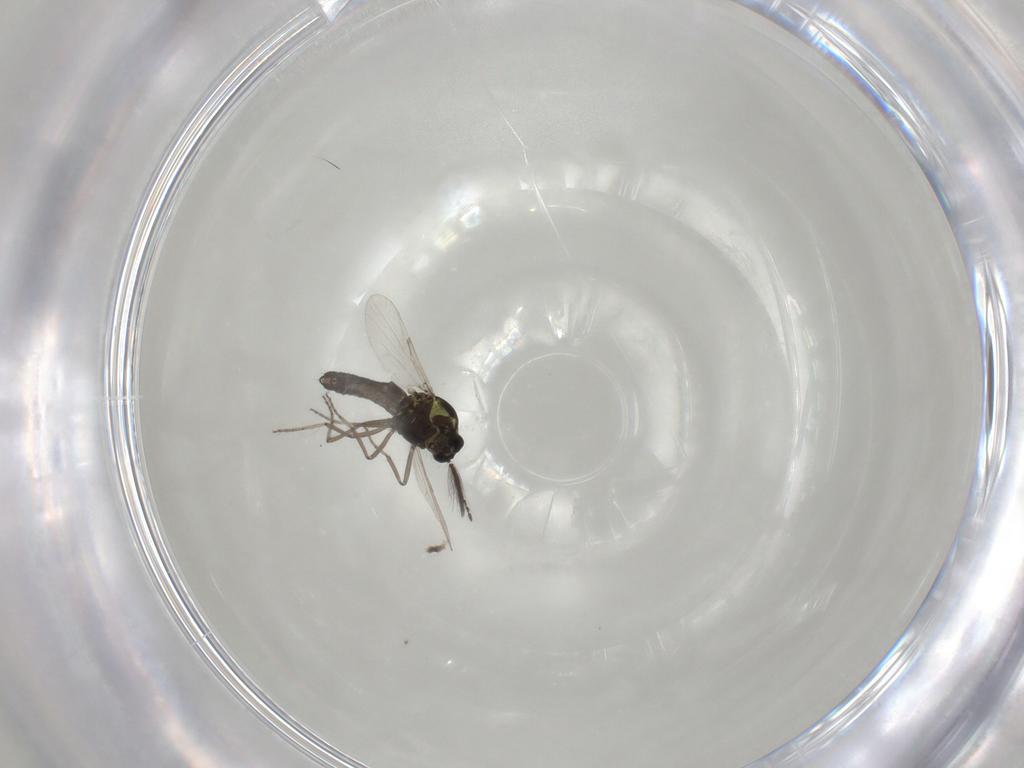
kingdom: Animalia
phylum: Arthropoda
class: Insecta
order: Diptera
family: Ceratopogonidae
